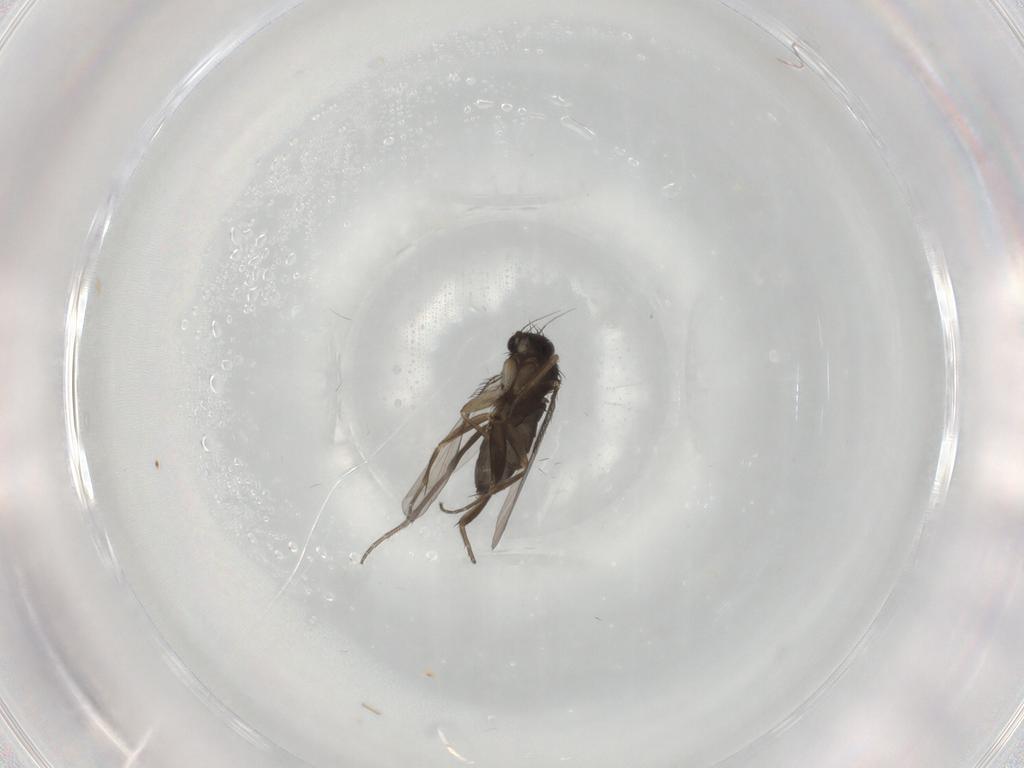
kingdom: Animalia
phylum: Arthropoda
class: Insecta
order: Diptera
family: Phoridae
